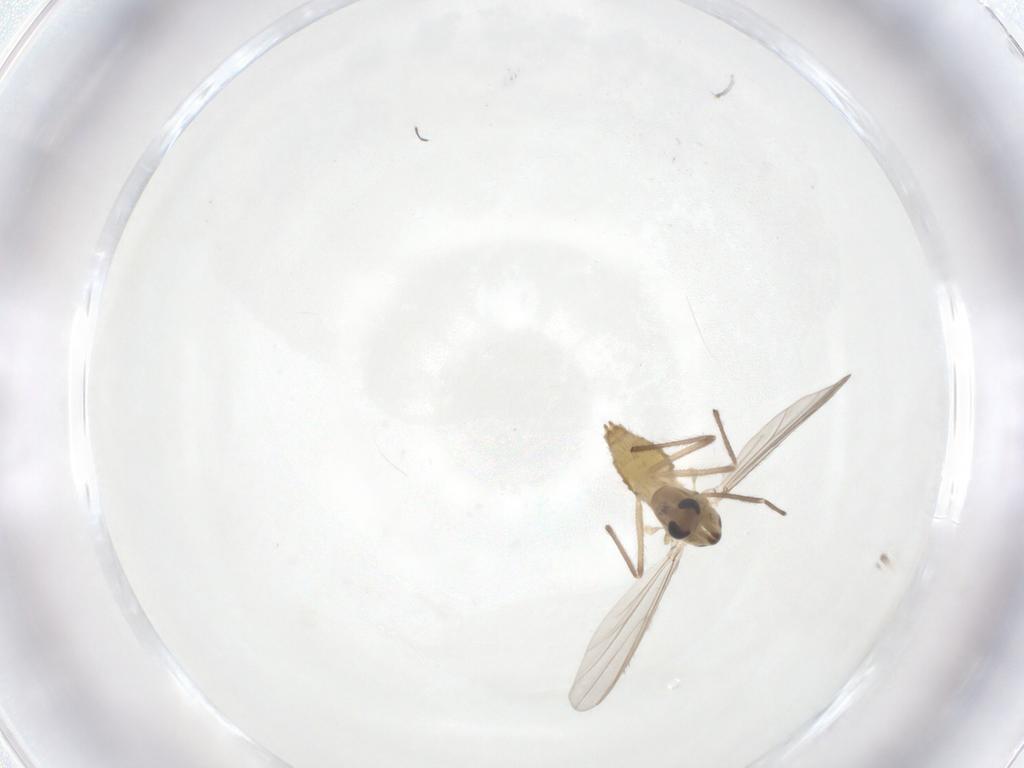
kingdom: Animalia
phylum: Arthropoda
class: Insecta
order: Diptera
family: Chironomidae
